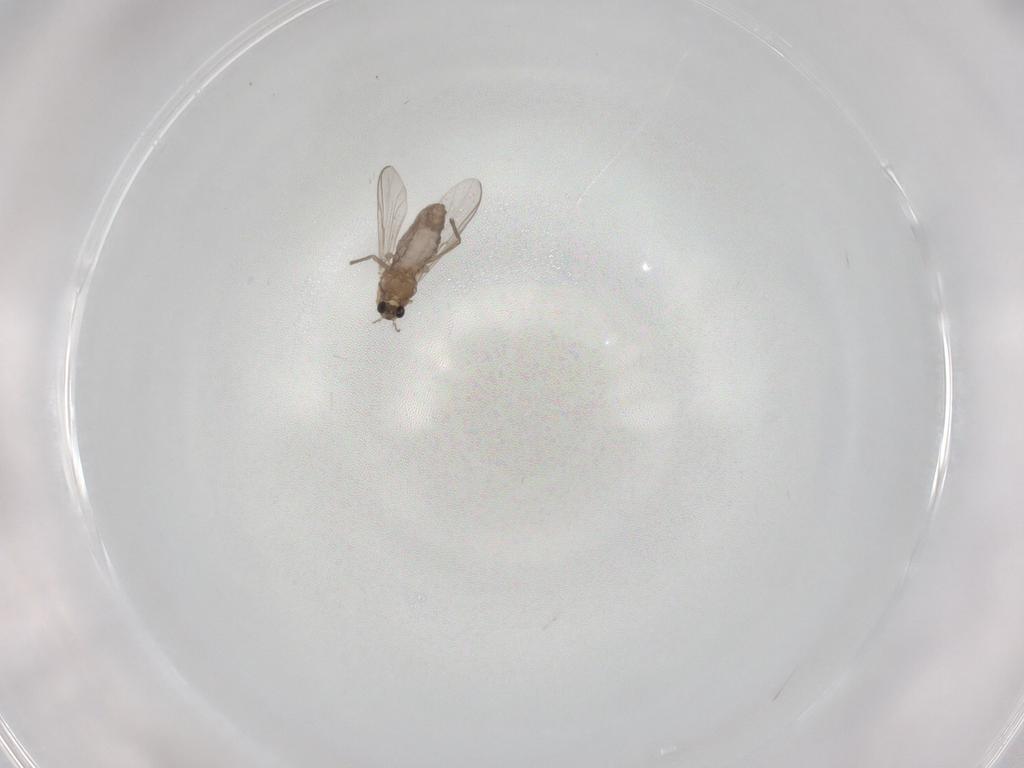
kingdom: Animalia
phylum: Arthropoda
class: Insecta
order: Diptera
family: Chironomidae
